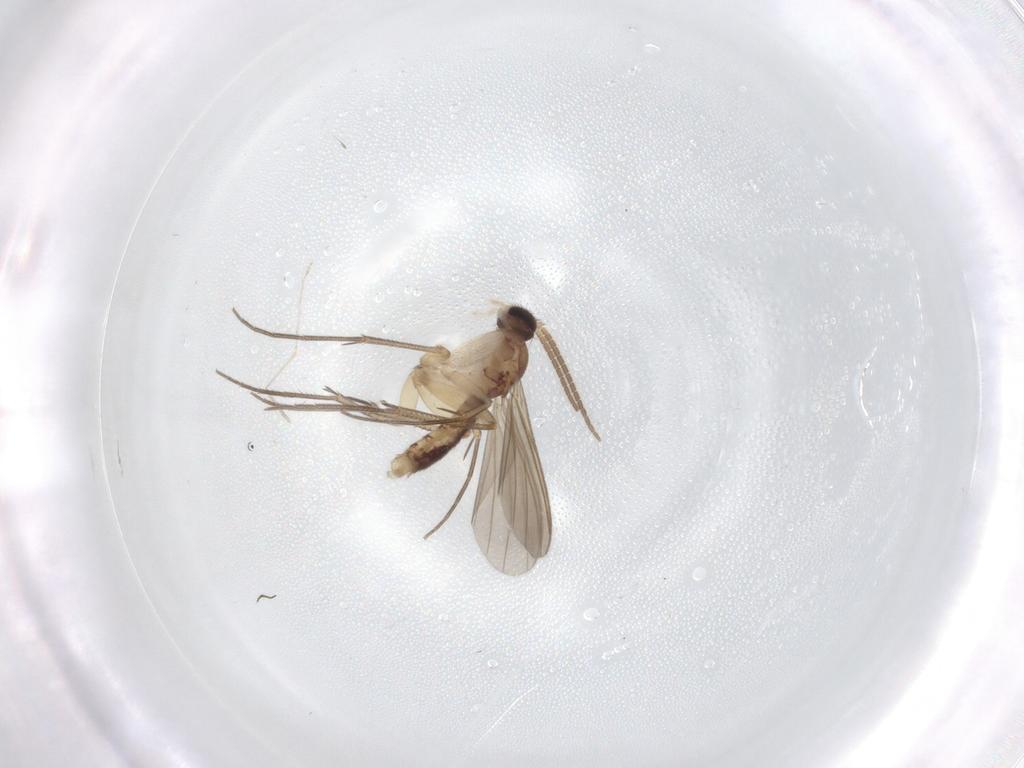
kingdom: Animalia
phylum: Arthropoda
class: Insecta
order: Diptera
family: Mycetophilidae
